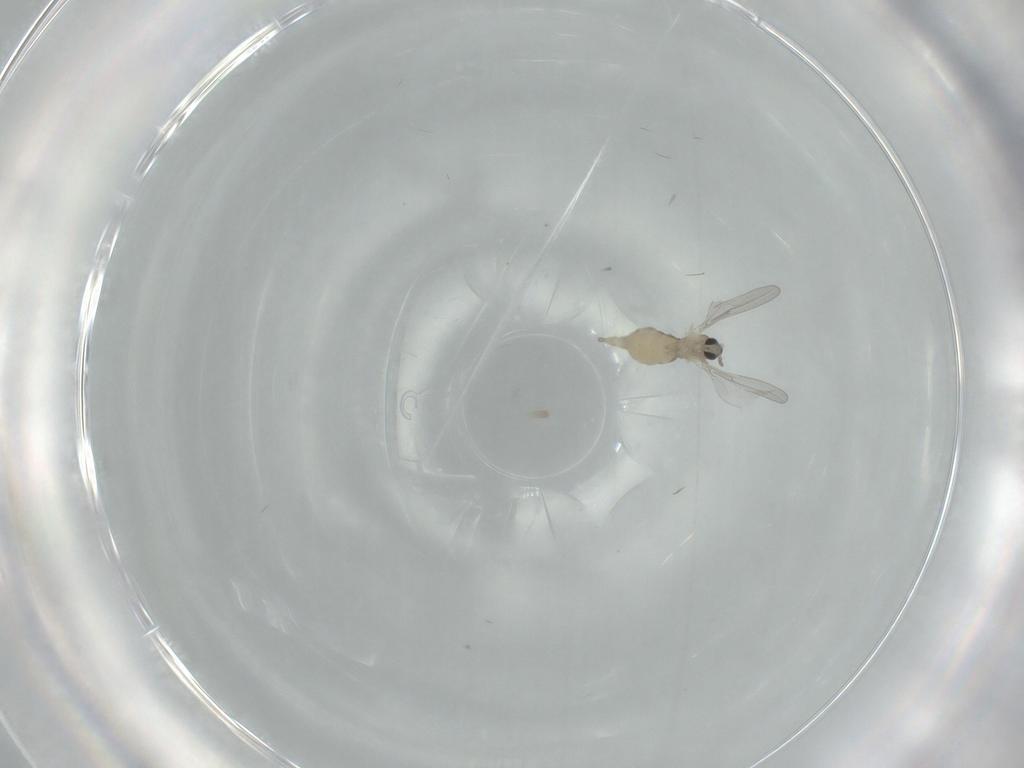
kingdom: Animalia
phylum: Arthropoda
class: Insecta
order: Diptera
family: Cecidomyiidae
